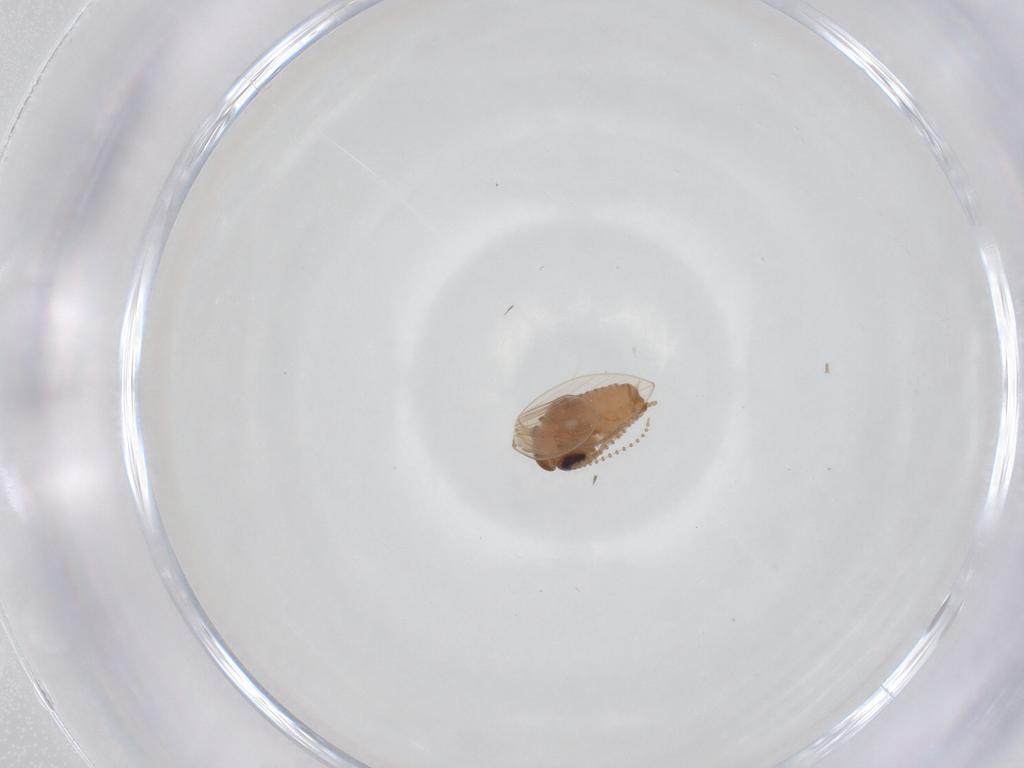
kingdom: Animalia
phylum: Arthropoda
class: Insecta
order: Diptera
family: Psychodidae
